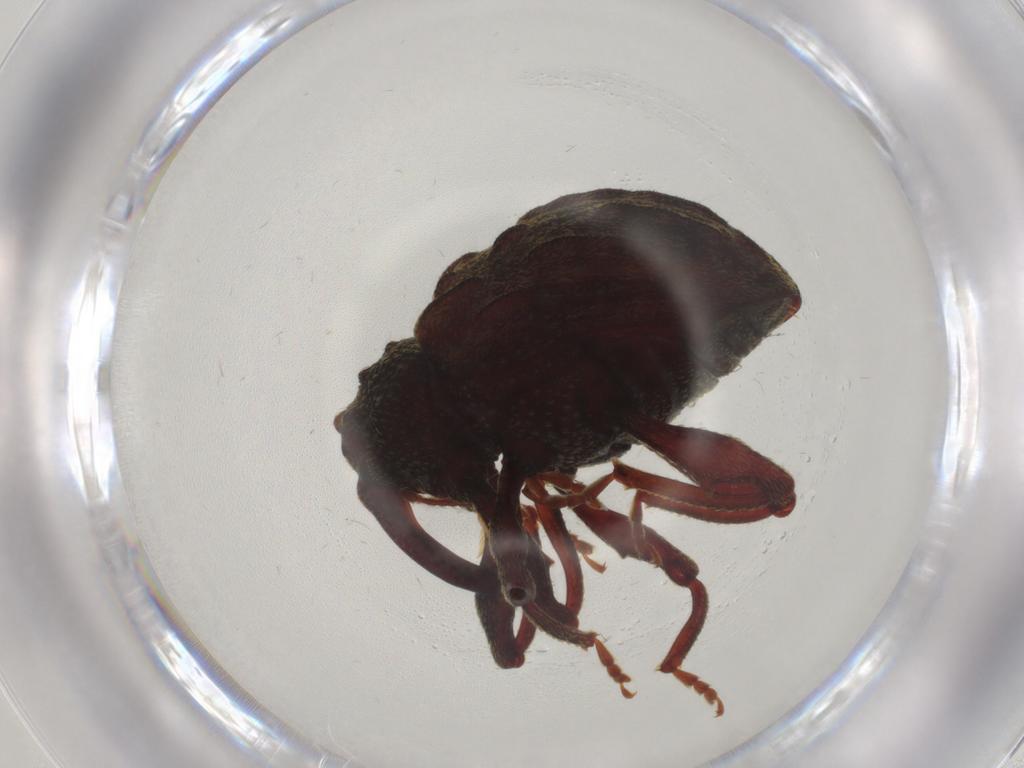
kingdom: Animalia
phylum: Arthropoda
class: Insecta
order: Coleoptera
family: Curculionidae
